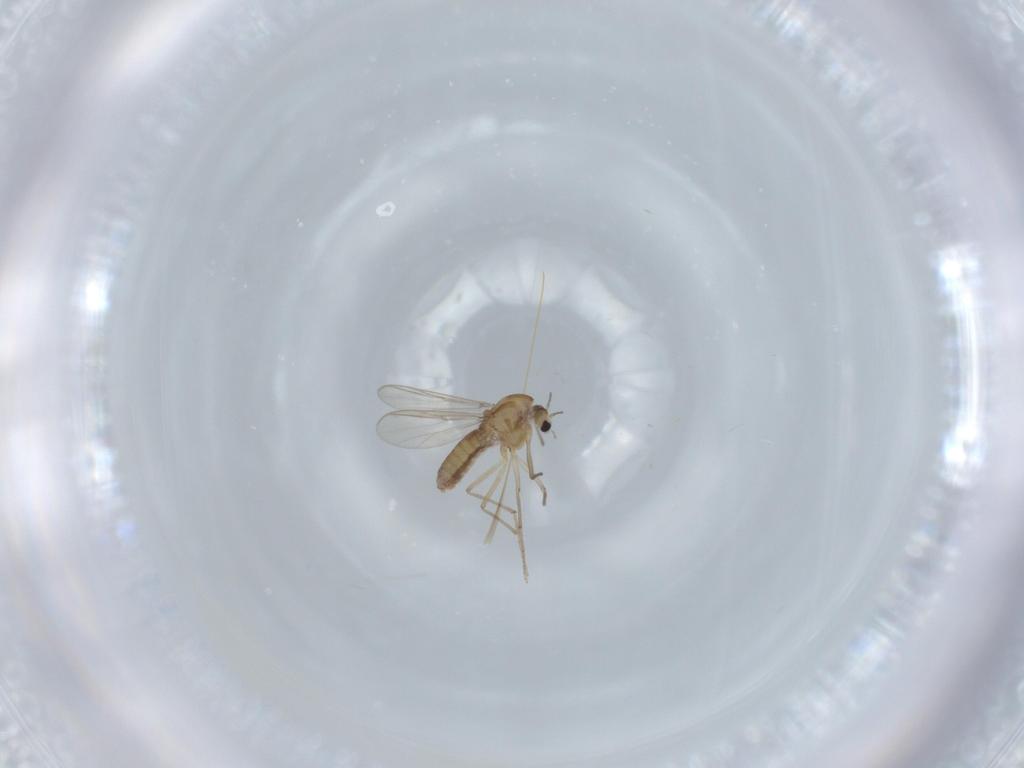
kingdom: Animalia
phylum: Arthropoda
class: Insecta
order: Diptera
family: Chironomidae
